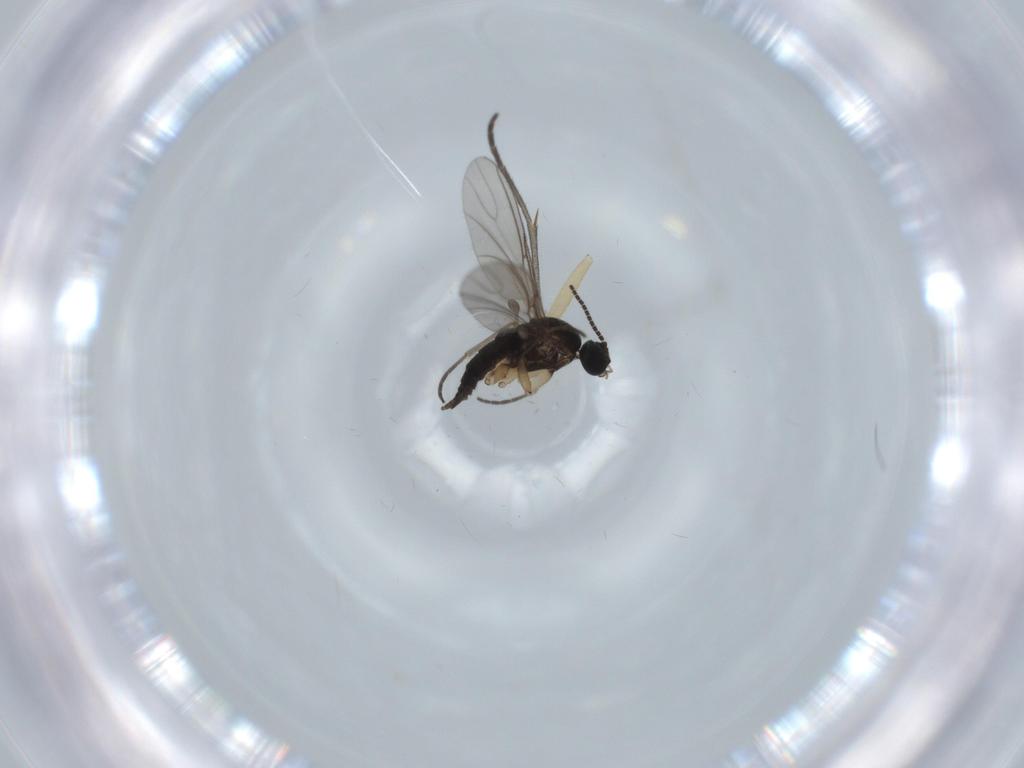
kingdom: Animalia
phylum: Arthropoda
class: Insecta
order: Diptera
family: Sciaridae
